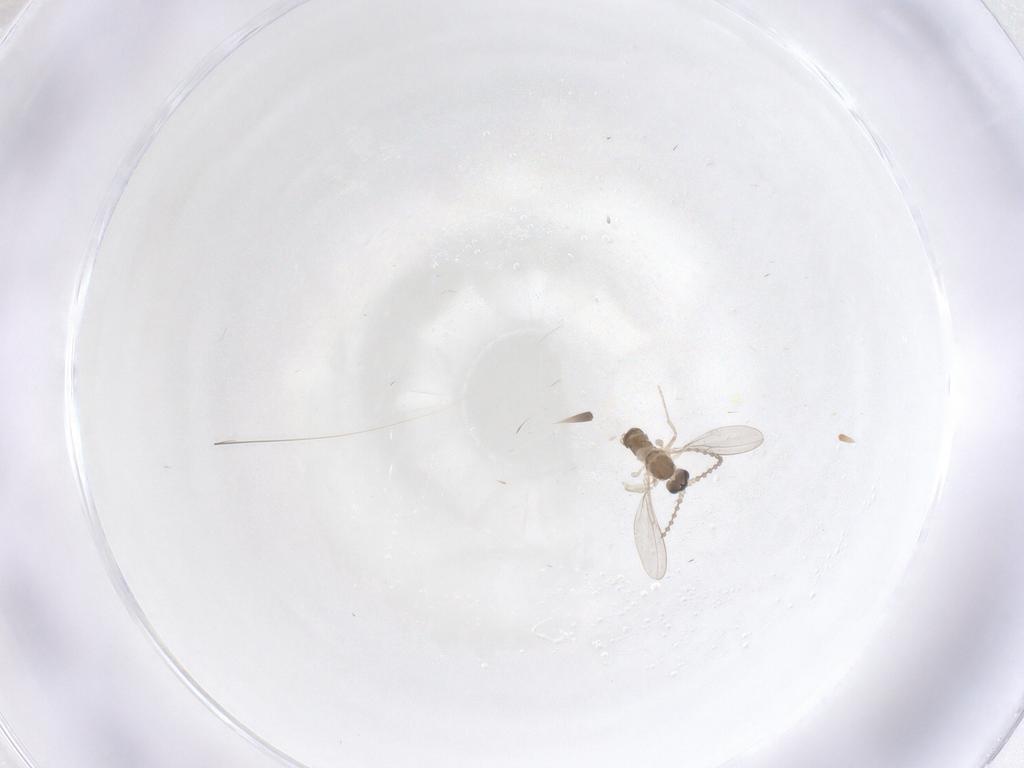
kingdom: Animalia
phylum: Arthropoda
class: Insecta
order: Diptera
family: Cecidomyiidae
